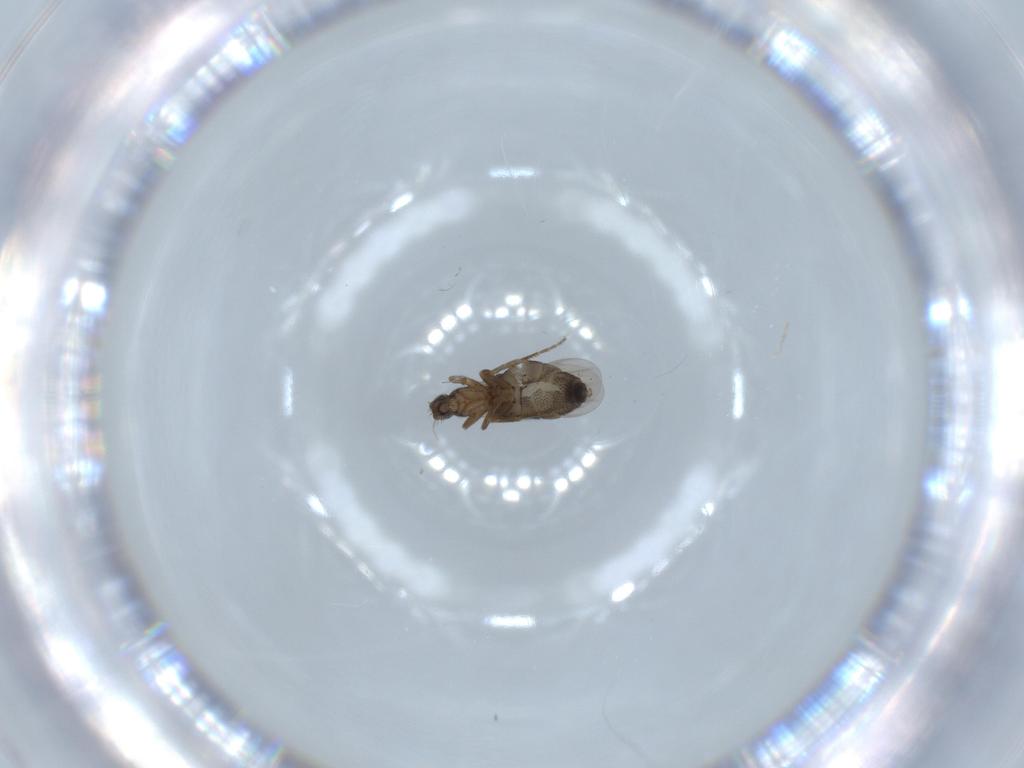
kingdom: Animalia
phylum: Arthropoda
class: Insecta
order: Diptera
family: Phoridae
